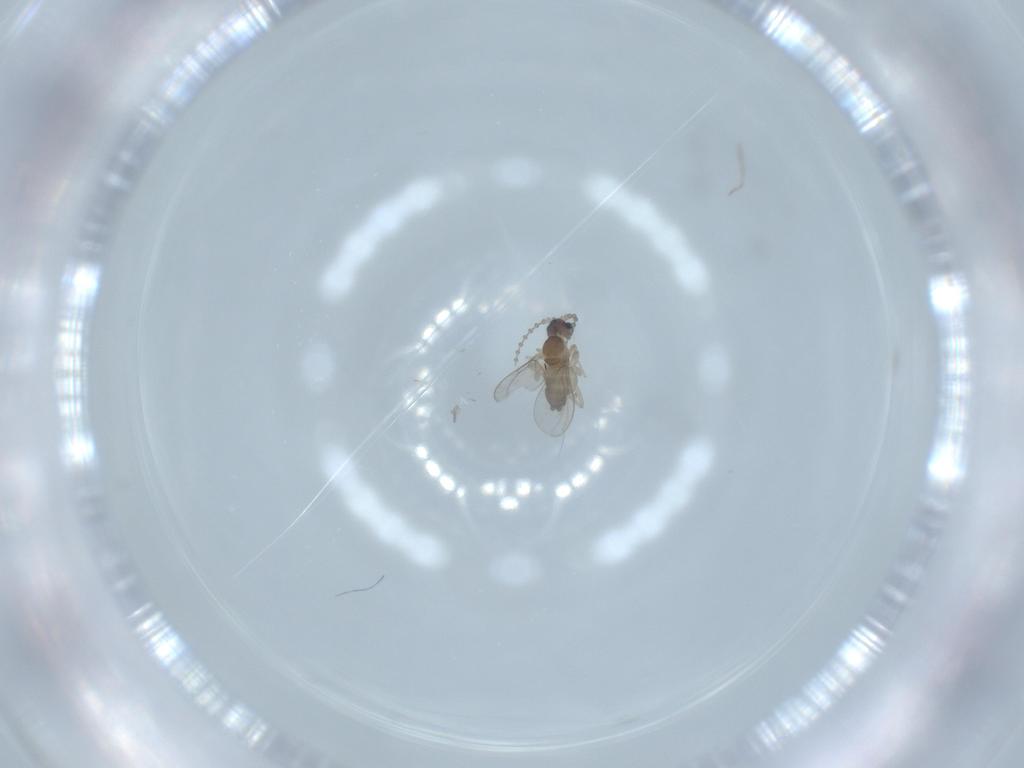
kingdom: Animalia
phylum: Arthropoda
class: Insecta
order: Diptera
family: Cecidomyiidae
